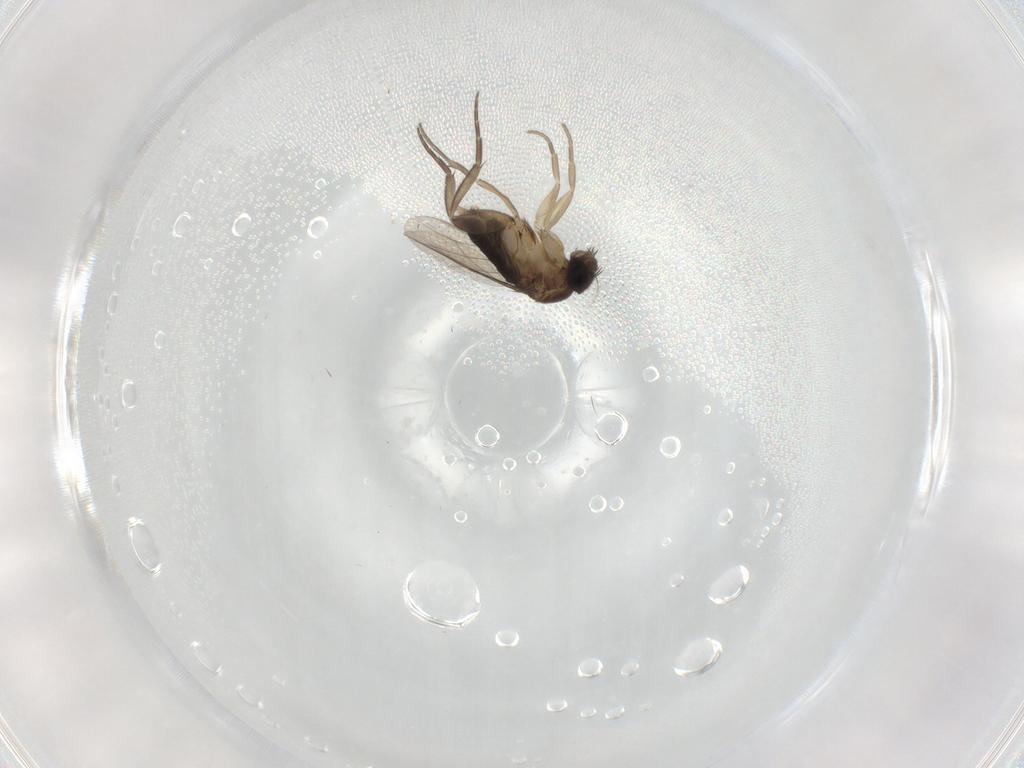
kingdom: Animalia
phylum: Arthropoda
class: Insecta
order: Diptera
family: Phoridae
